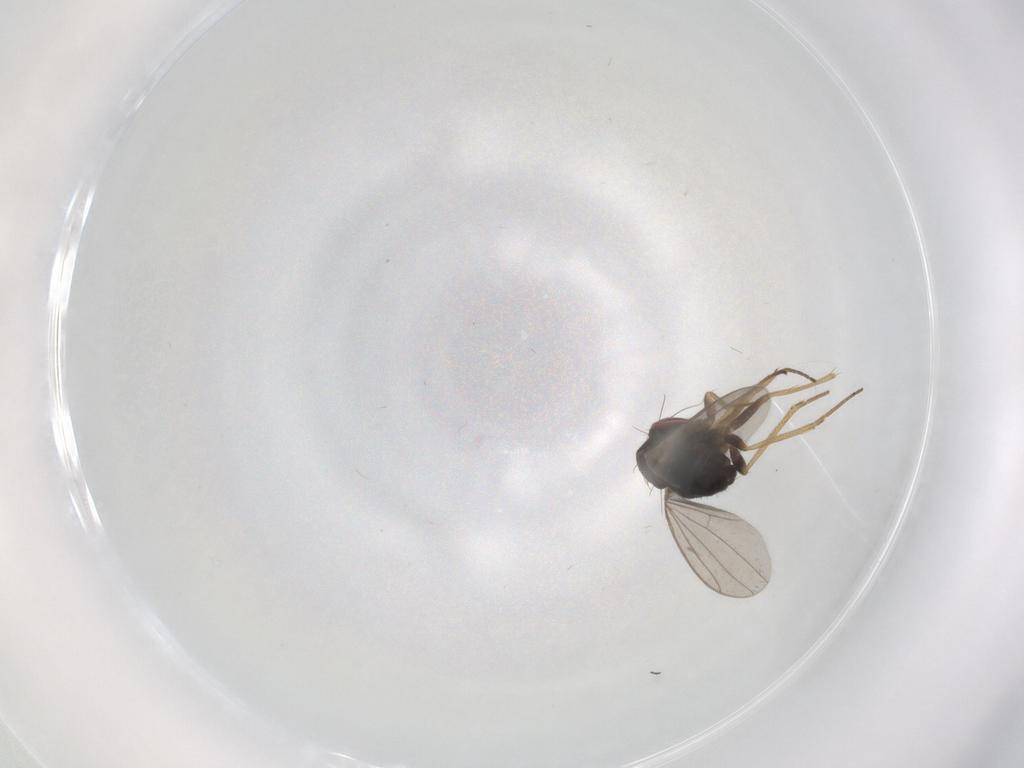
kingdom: Animalia
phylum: Arthropoda
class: Insecta
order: Diptera
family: Dolichopodidae
